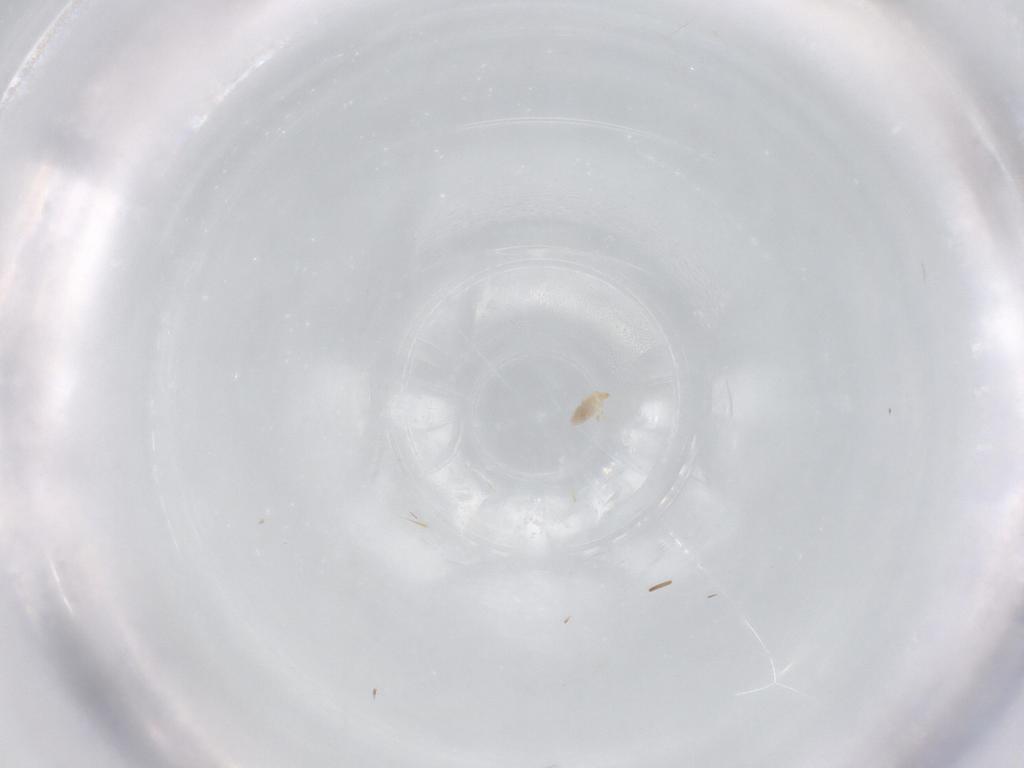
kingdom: Animalia
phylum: Arthropoda
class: Arachnida
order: Trombidiformes
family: Microtrombidiidae
